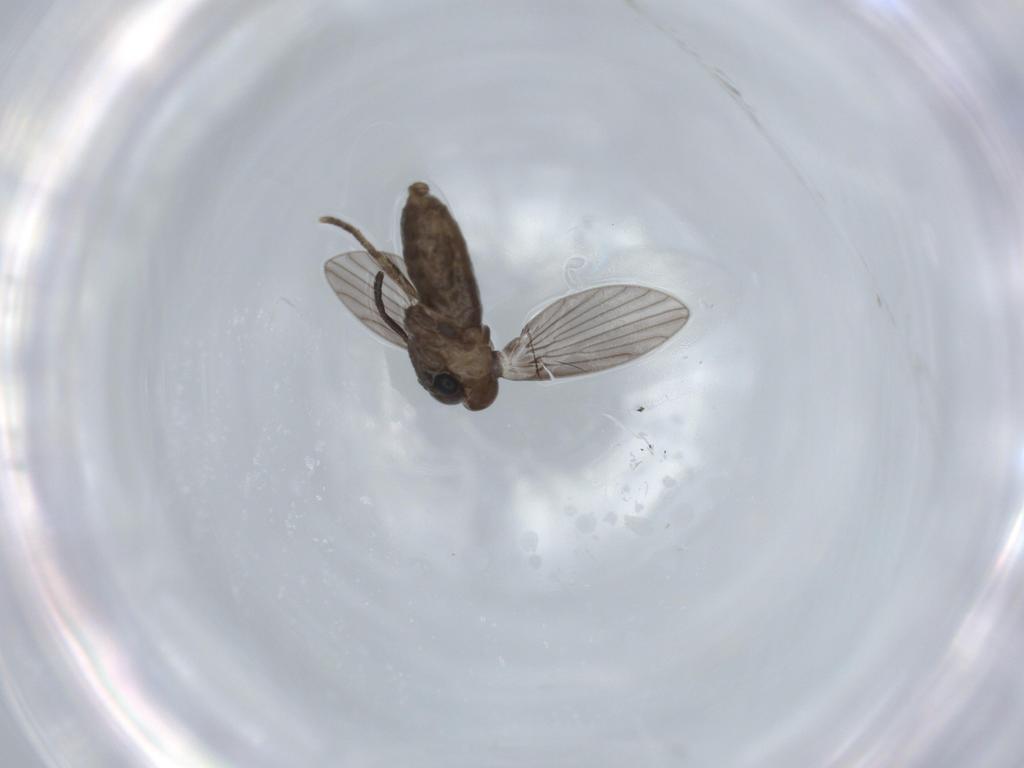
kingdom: Animalia
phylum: Arthropoda
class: Insecta
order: Diptera
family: Psychodidae
